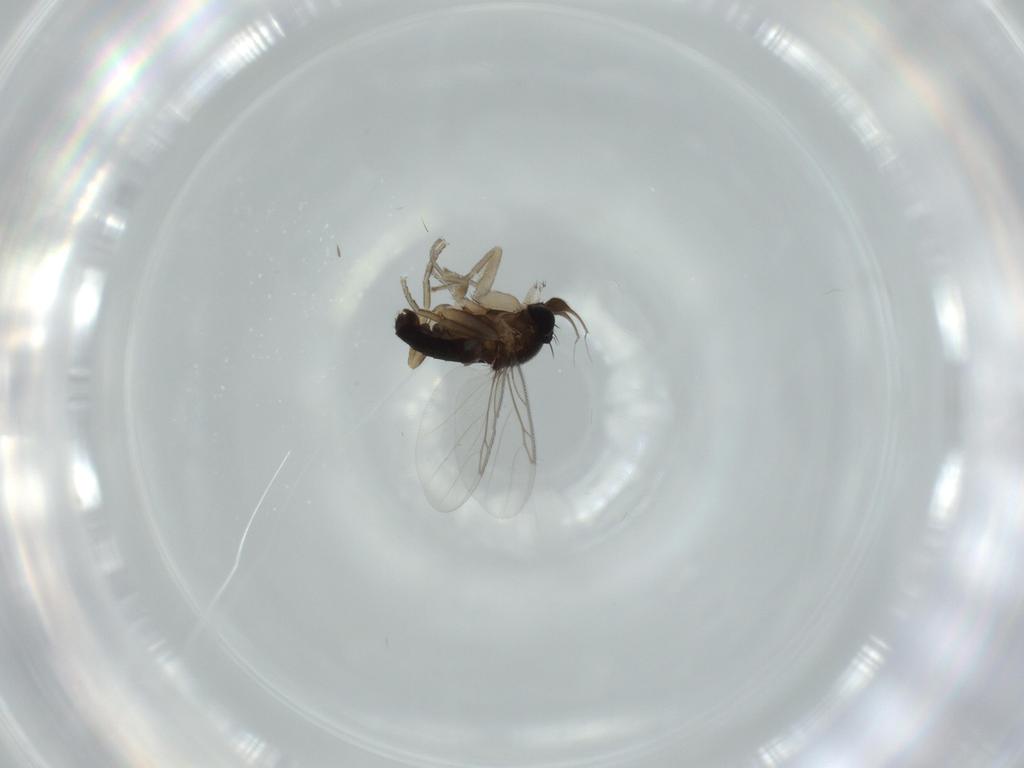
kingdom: Animalia
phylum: Arthropoda
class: Insecta
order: Diptera
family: Phoridae
